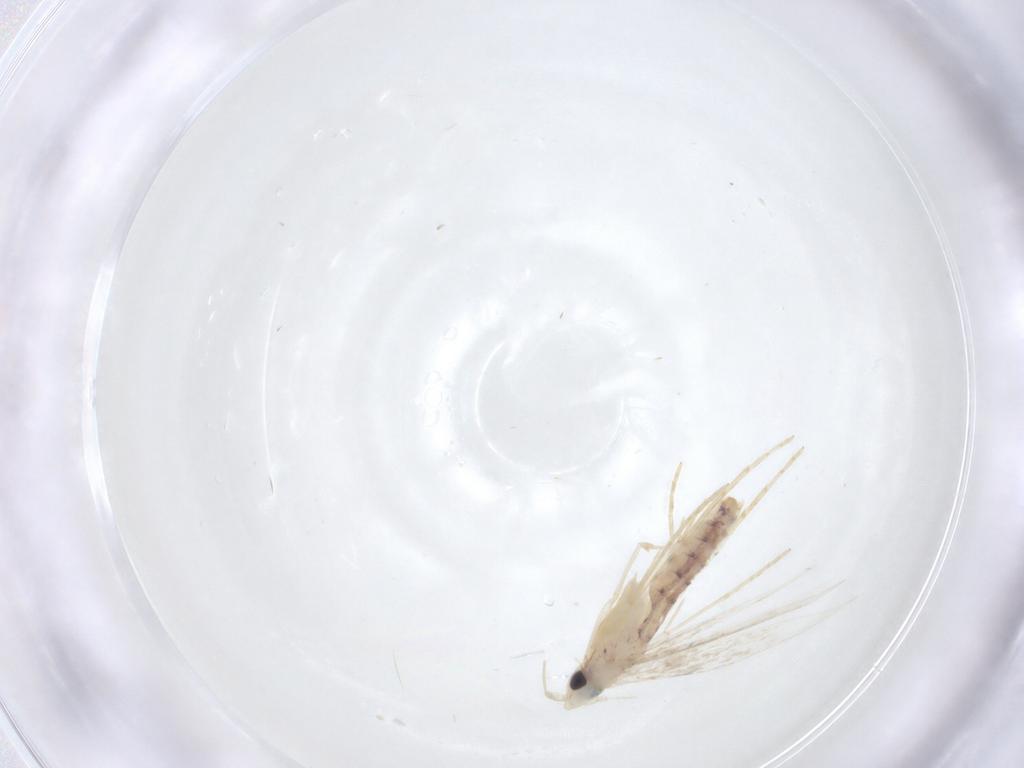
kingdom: Animalia
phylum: Arthropoda
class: Insecta
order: Lepidoptera
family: Tineidae
